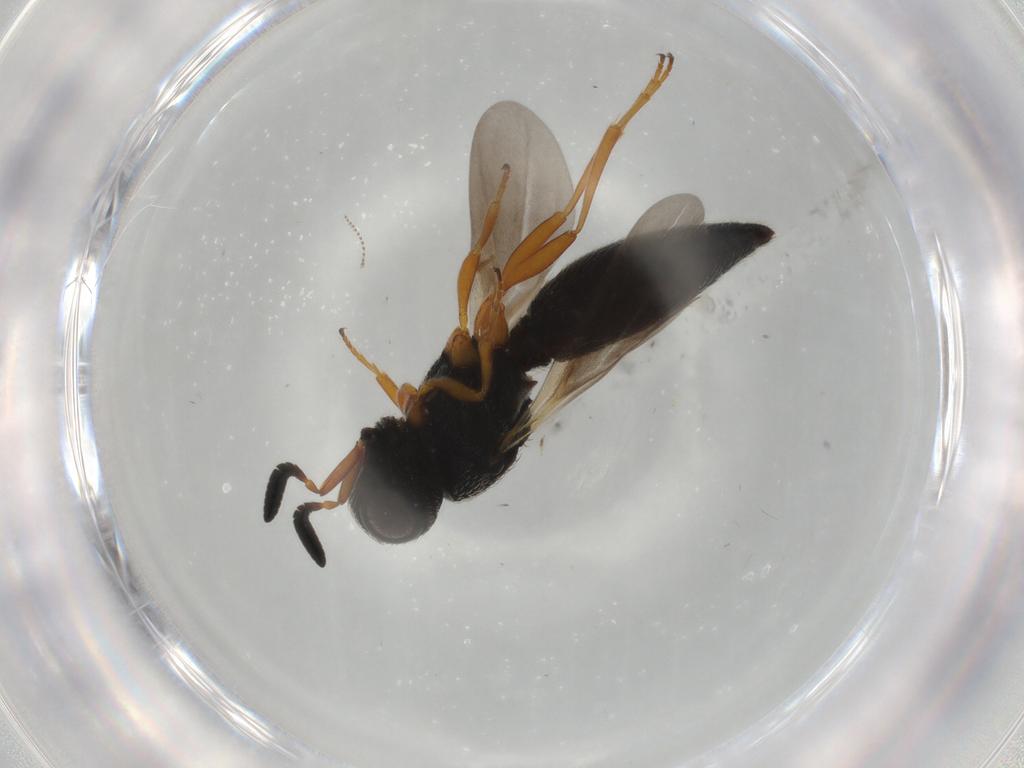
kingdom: Animalia
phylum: Arthropoda
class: Insecta
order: Hymenoptera
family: Scelionidae
